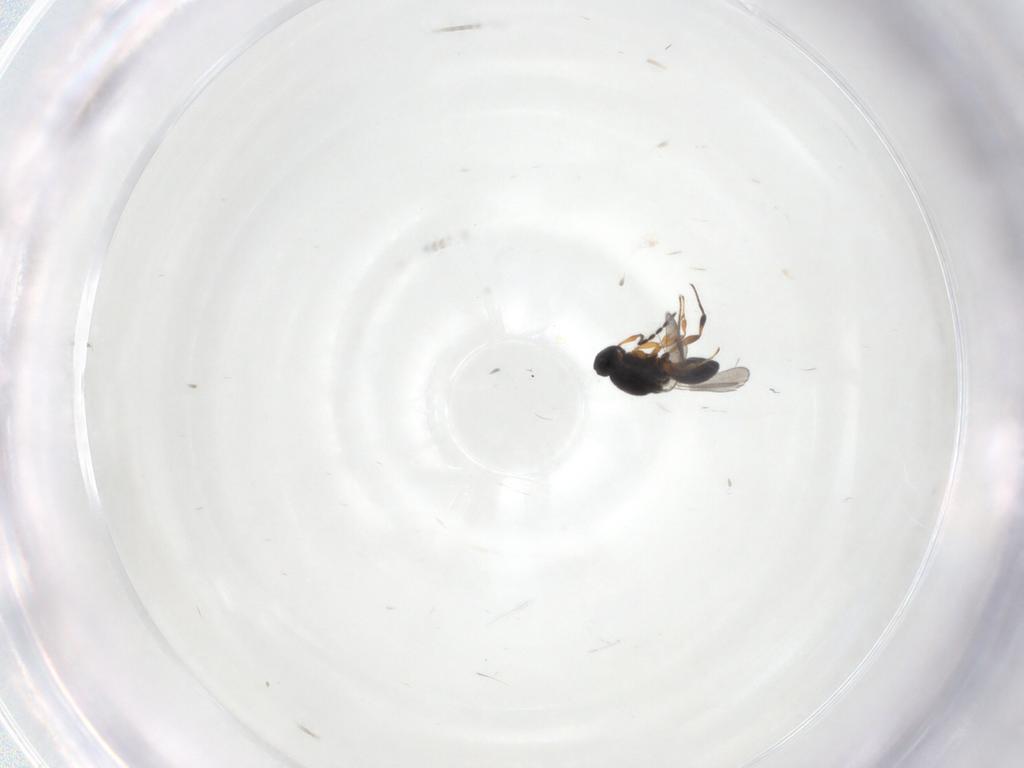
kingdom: Animalia
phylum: Arthropoda
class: Insecta
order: Hymenoptera
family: Platygastridae
